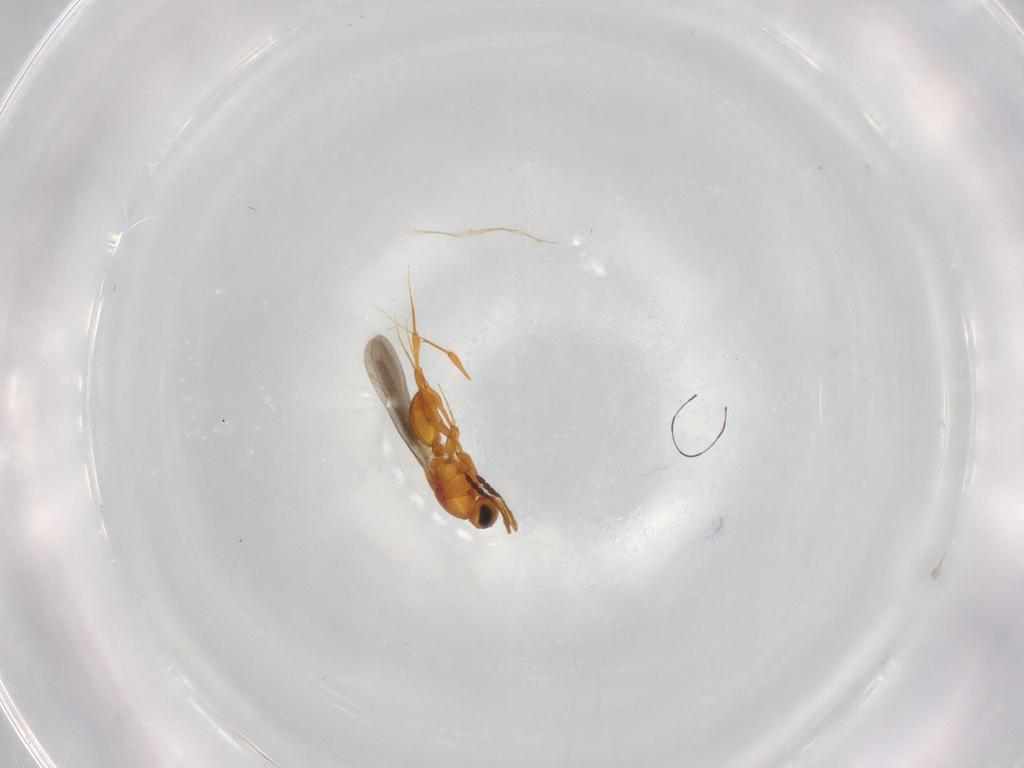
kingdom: Animalia
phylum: Arthropoda
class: Insecta
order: Hymenoptera
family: Platygastridae
